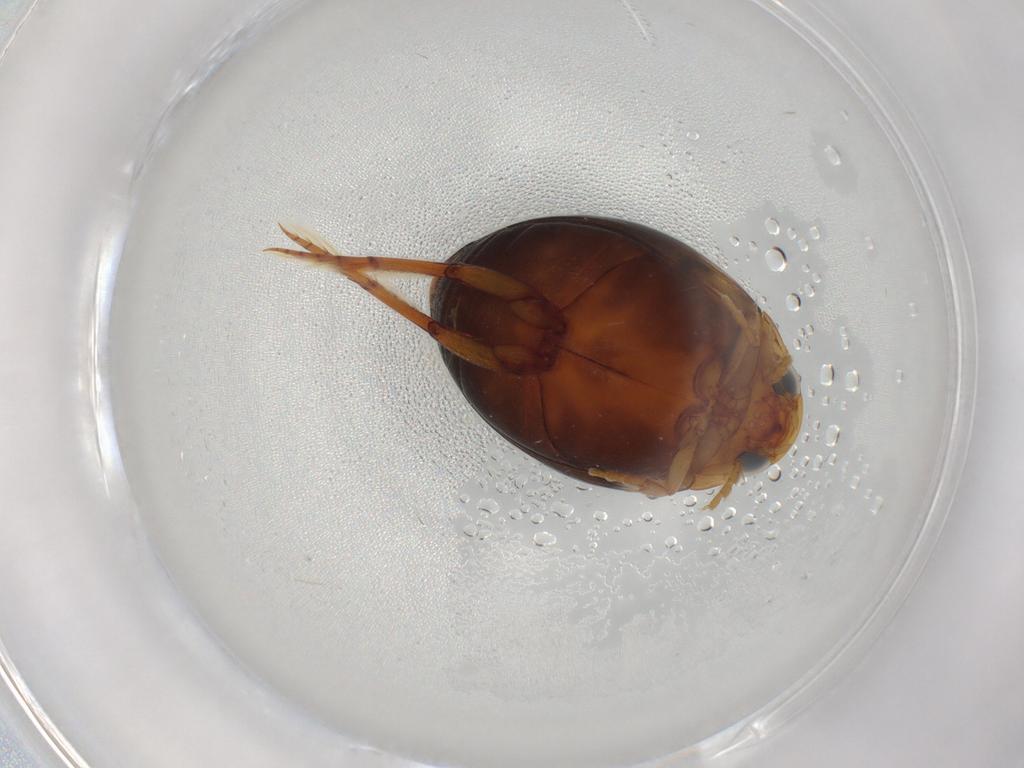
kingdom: Animalia
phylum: Arthropoda
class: Insecta
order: Coleoptera
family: Dytiscidae
